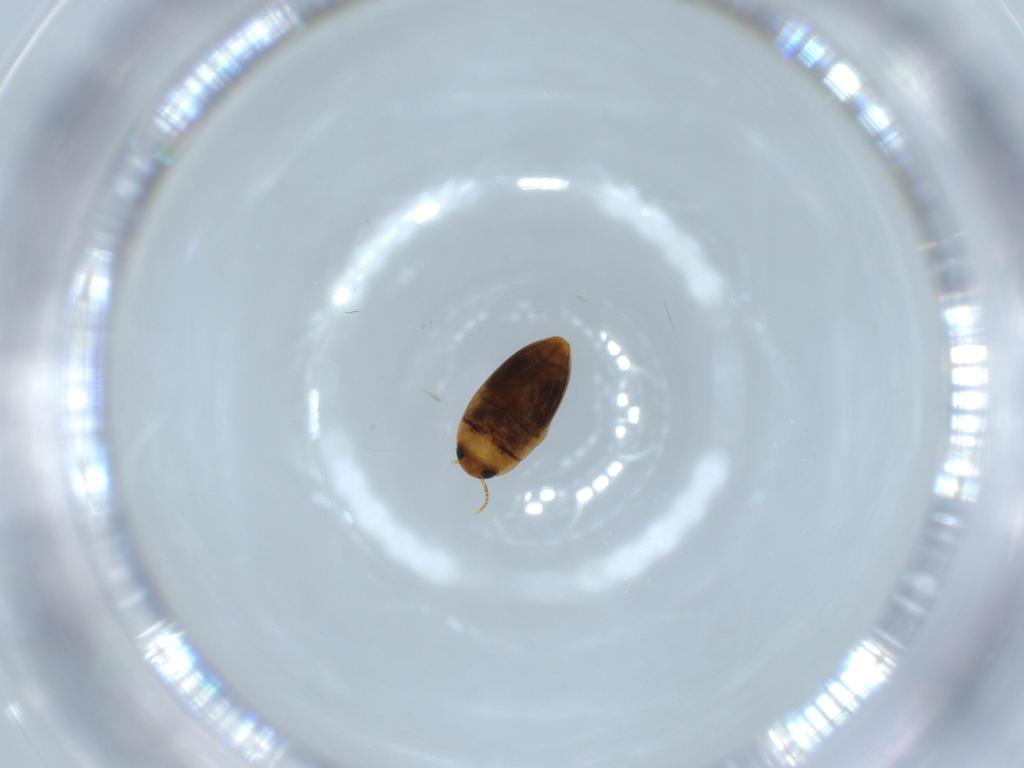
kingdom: Animalia
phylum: Arthropoda
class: Insecta
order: Coleoptera
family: Noteridae
